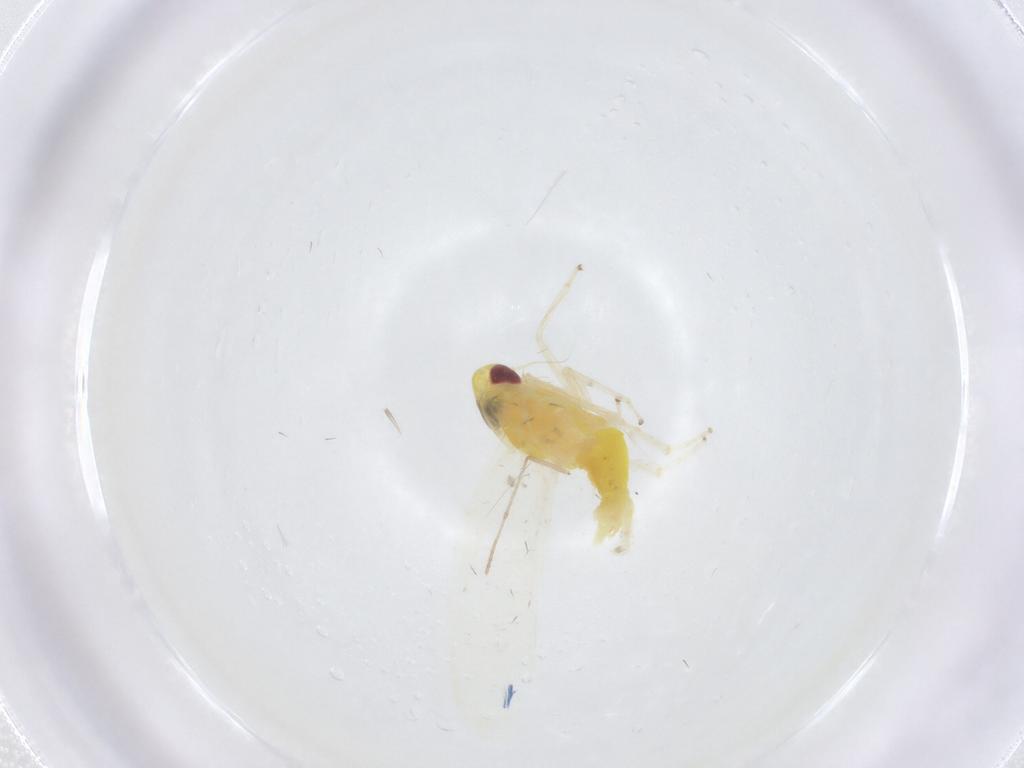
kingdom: Animalia
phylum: Arthropoda
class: Insecta
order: Hemiptera
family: Cicadellidae
